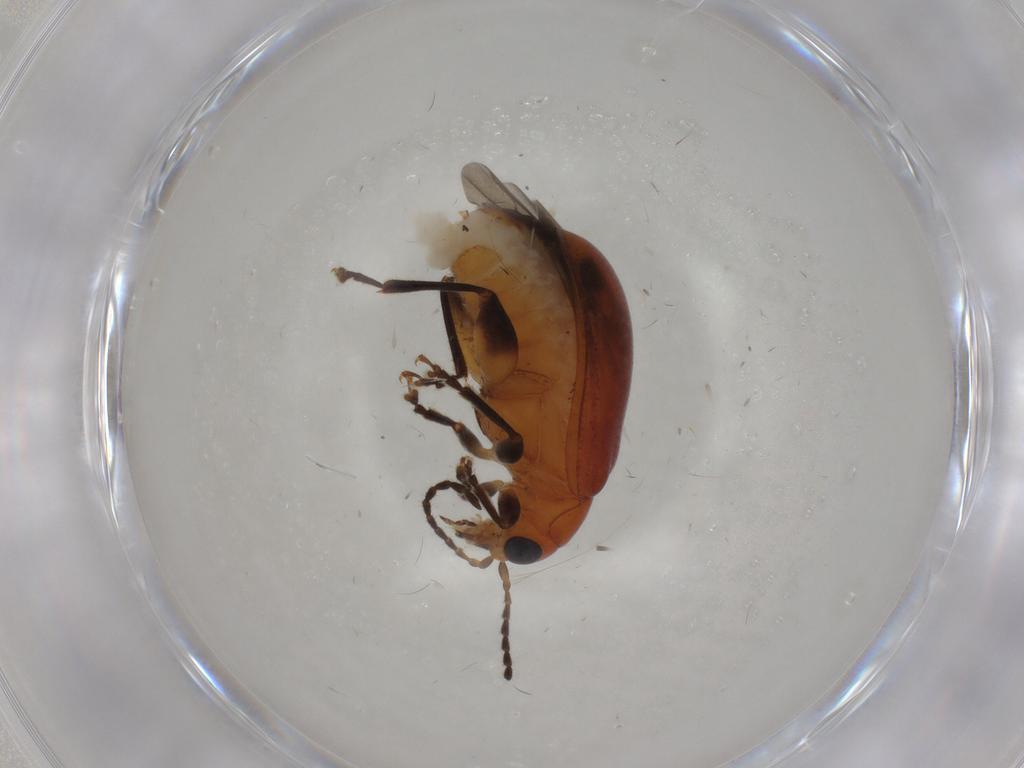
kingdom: Animalia
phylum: Arthropoda
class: Insecta
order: Coleoptera
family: Chrysomelidae
